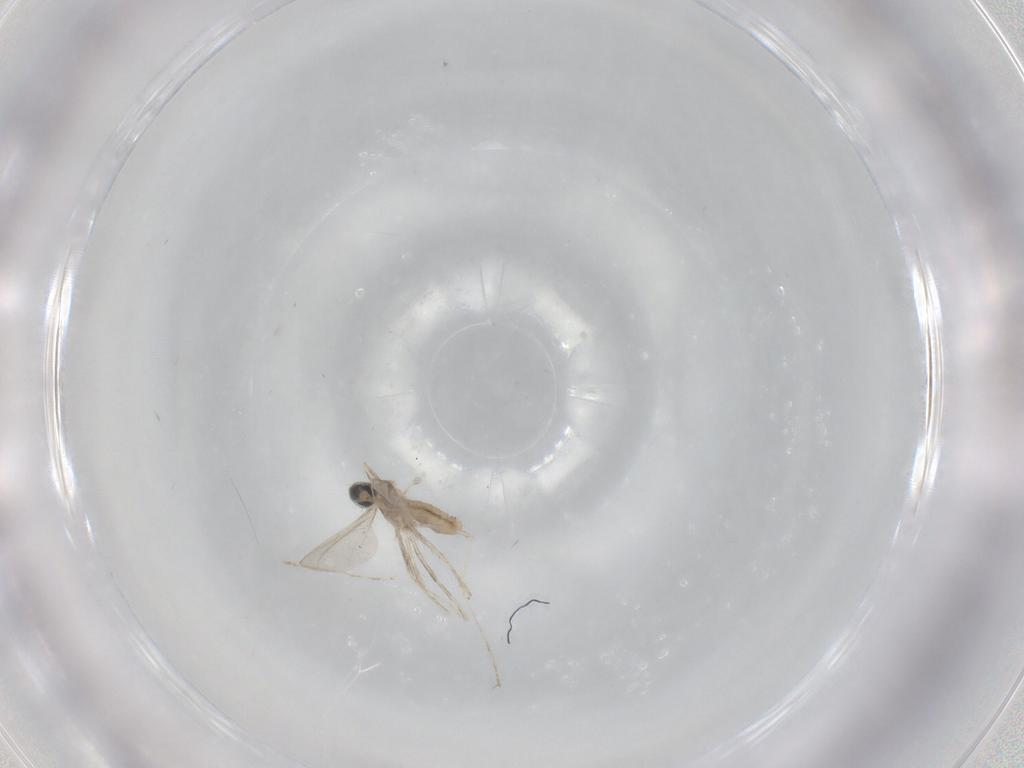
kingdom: Animalia
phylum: Arthropoda
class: Insecta
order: Diptera
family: Cecidomyiidae
